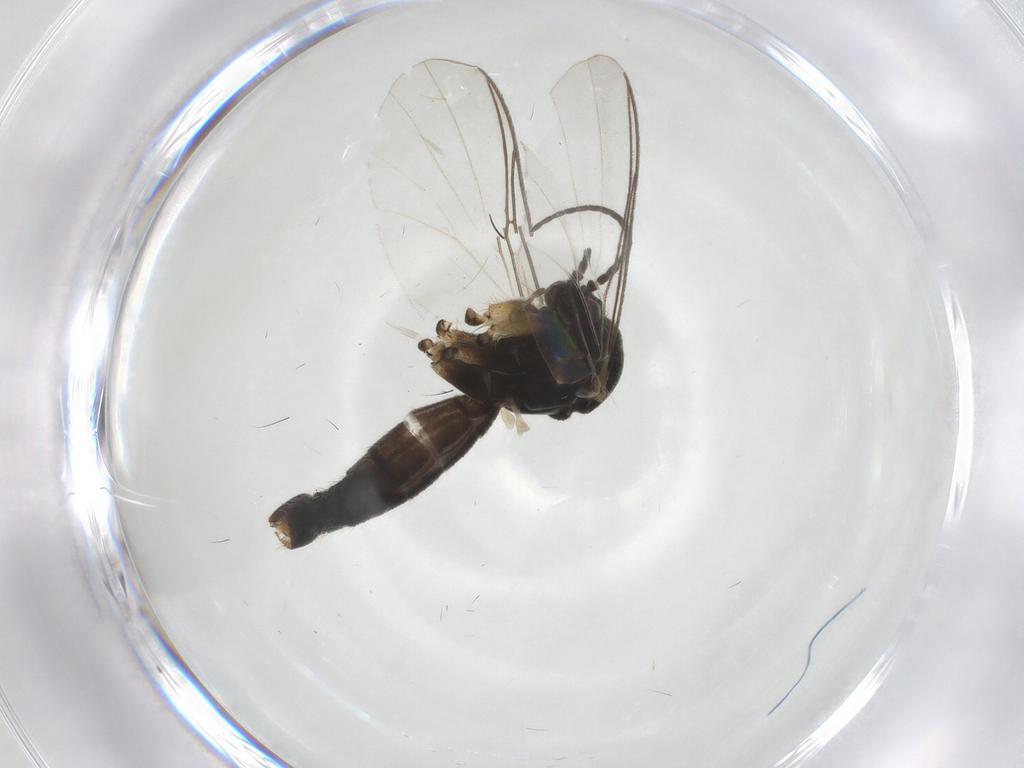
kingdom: Animalia
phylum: Arthropoda
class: Insecta
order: Diptera
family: Mycetophilidae
